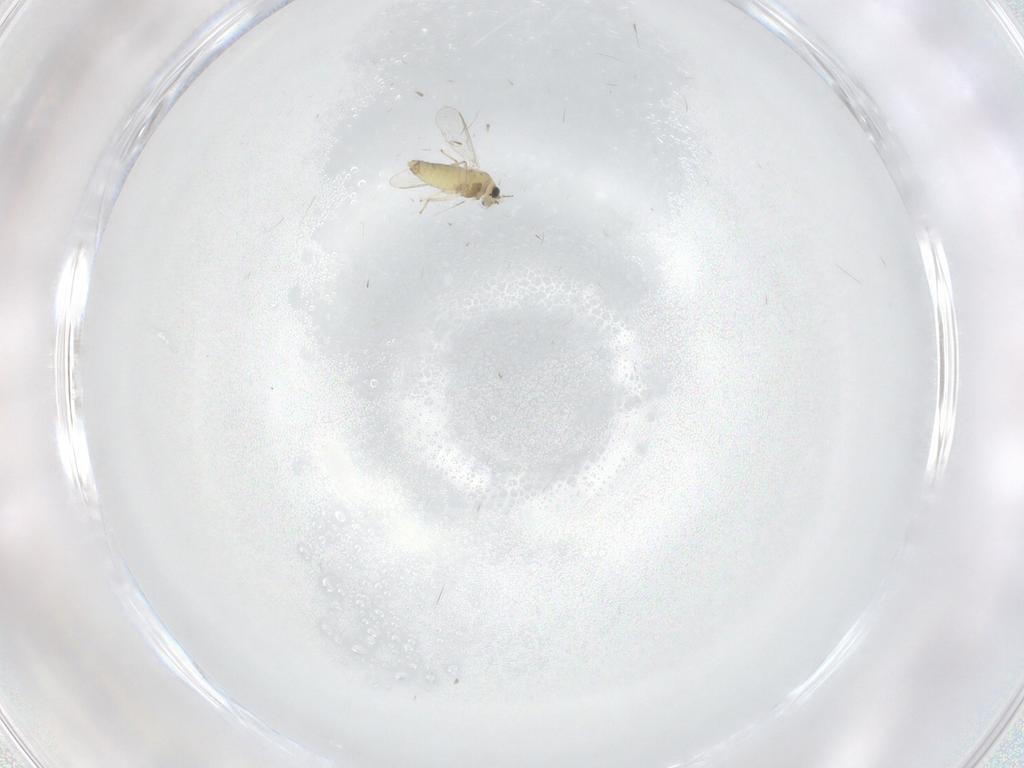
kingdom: Animalia
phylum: Arthropoda
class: Insecta
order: Diptera
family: Chironomidae
